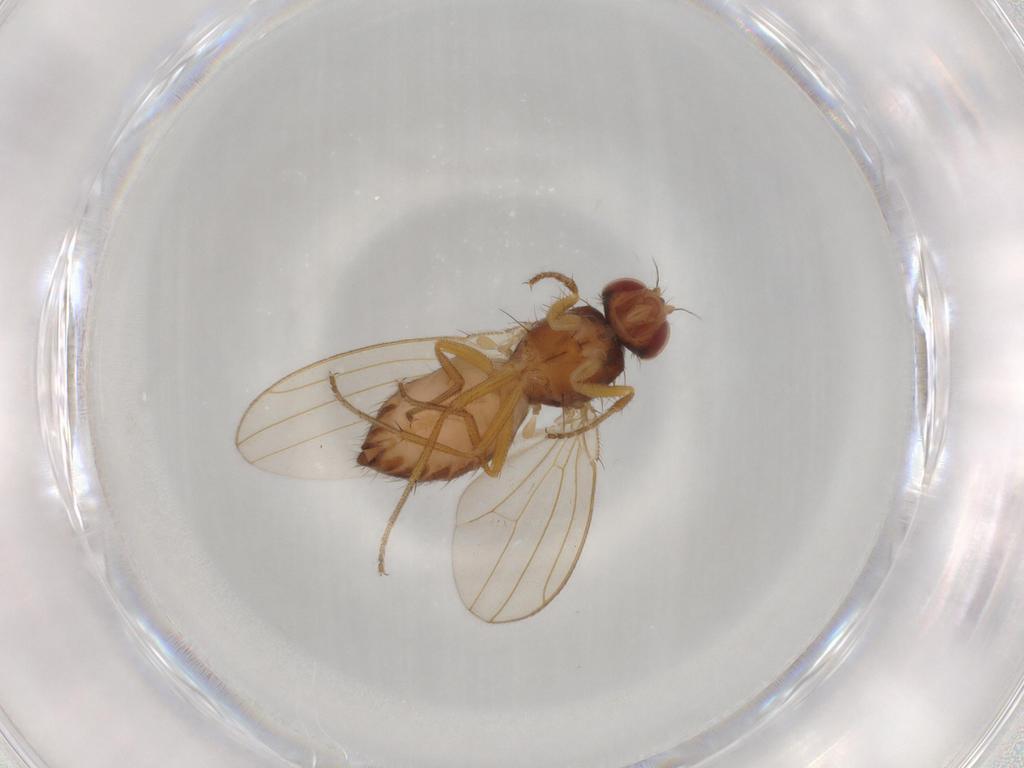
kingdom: Animalia
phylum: Arthropoda
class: Insecta
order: Diptera
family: Drosophilidae
